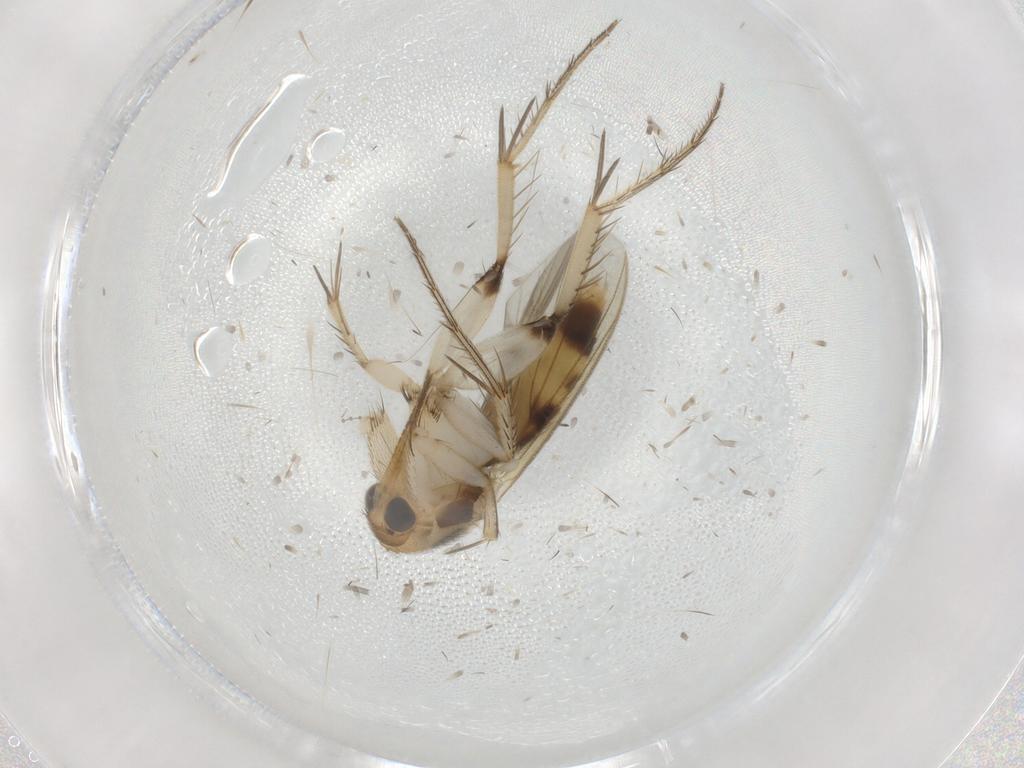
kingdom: Animalia
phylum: Arthropoda
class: Insecta
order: Diptera
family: Mycetophilidae
